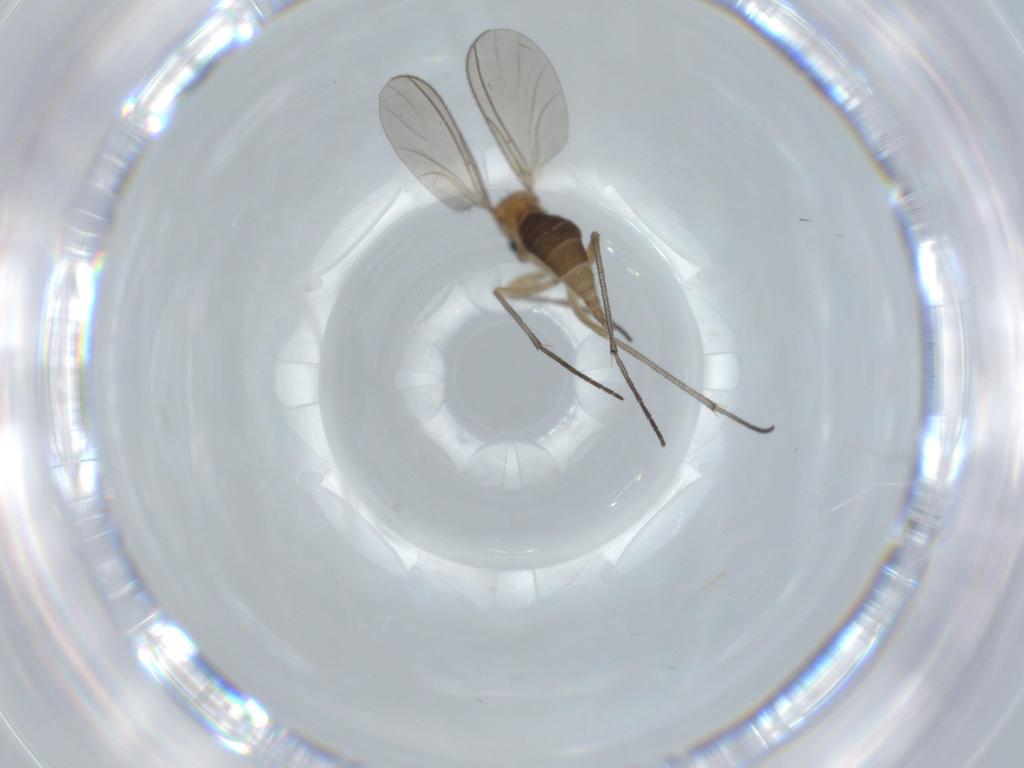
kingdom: Animalia
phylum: Arthropoda
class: Insecta
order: Diptera
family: Sciaridae
